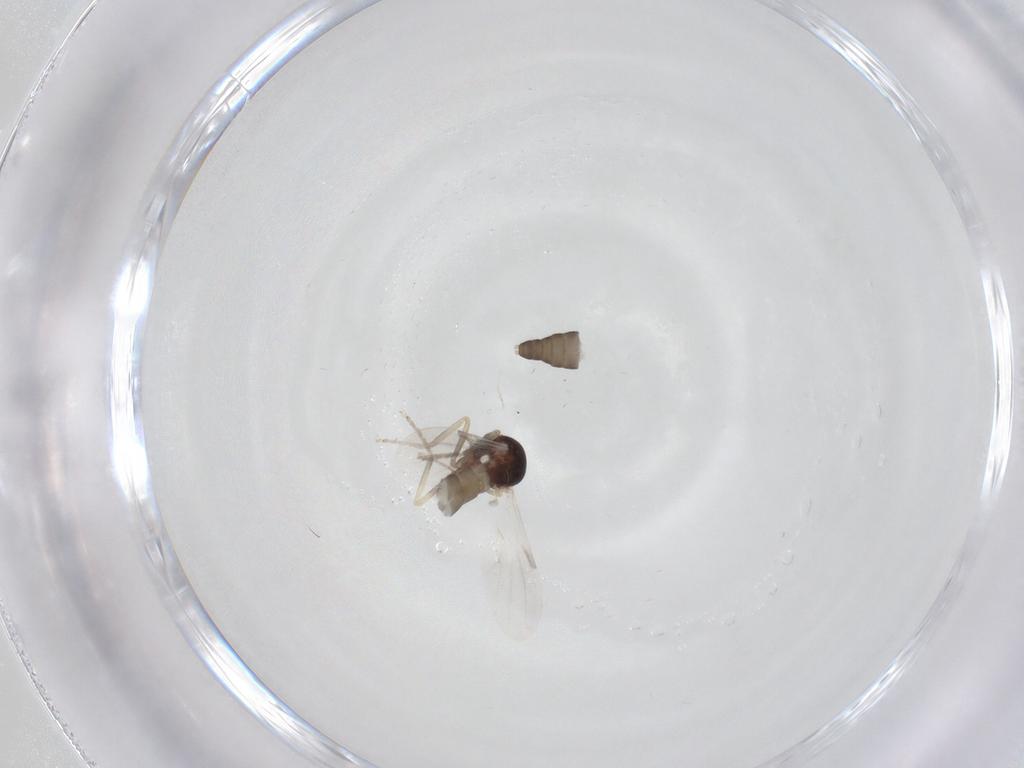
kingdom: Animalia
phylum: Arthropoda
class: Insecta
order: Diptera
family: Ceratopogonidae
